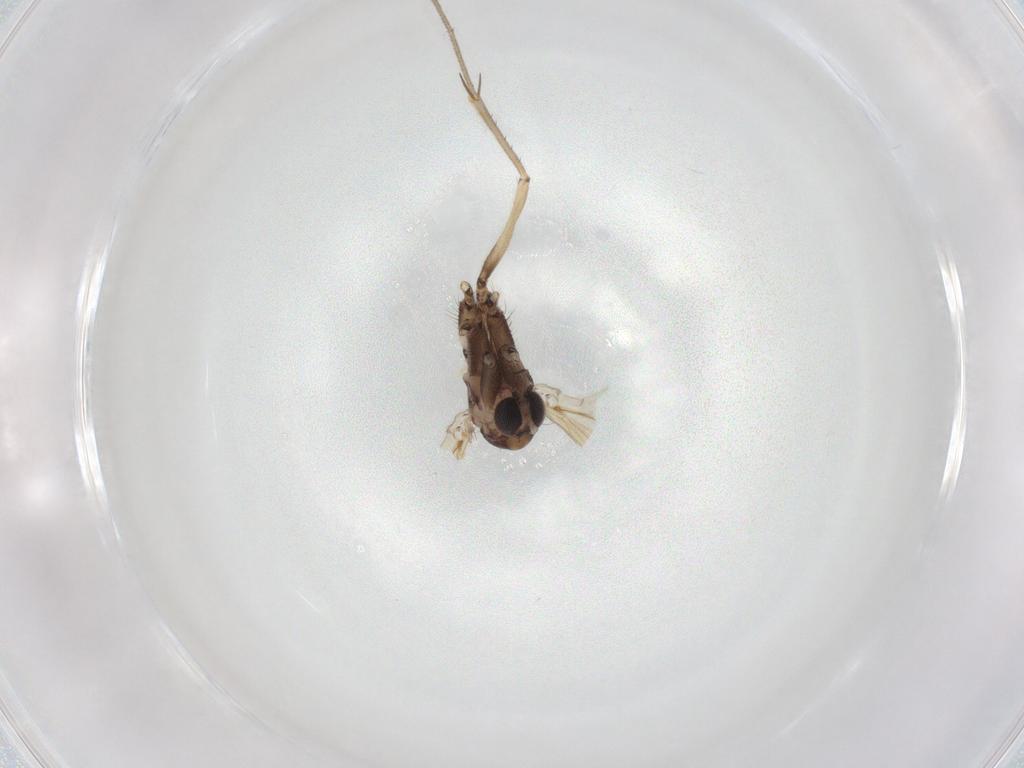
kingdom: Animalia
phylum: Arthropoda
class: Insecta
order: Diptera
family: Mycetophilidae
